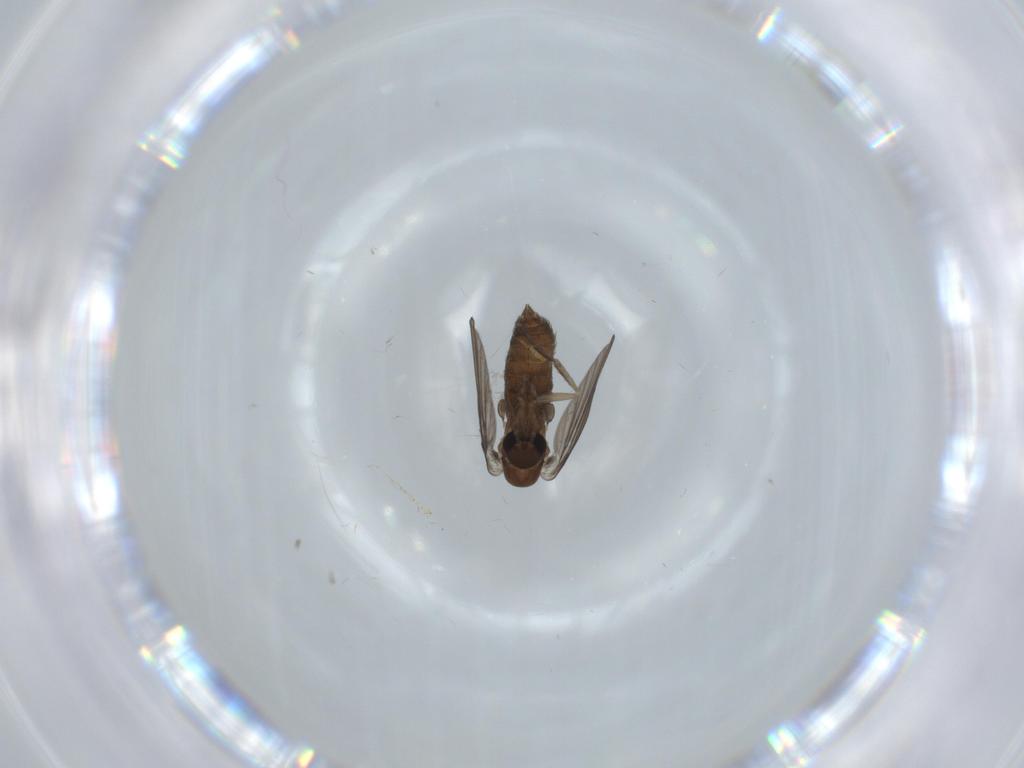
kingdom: Animalia
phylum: Arthropoda
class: Insecta
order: Diptera
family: Psychodidae
